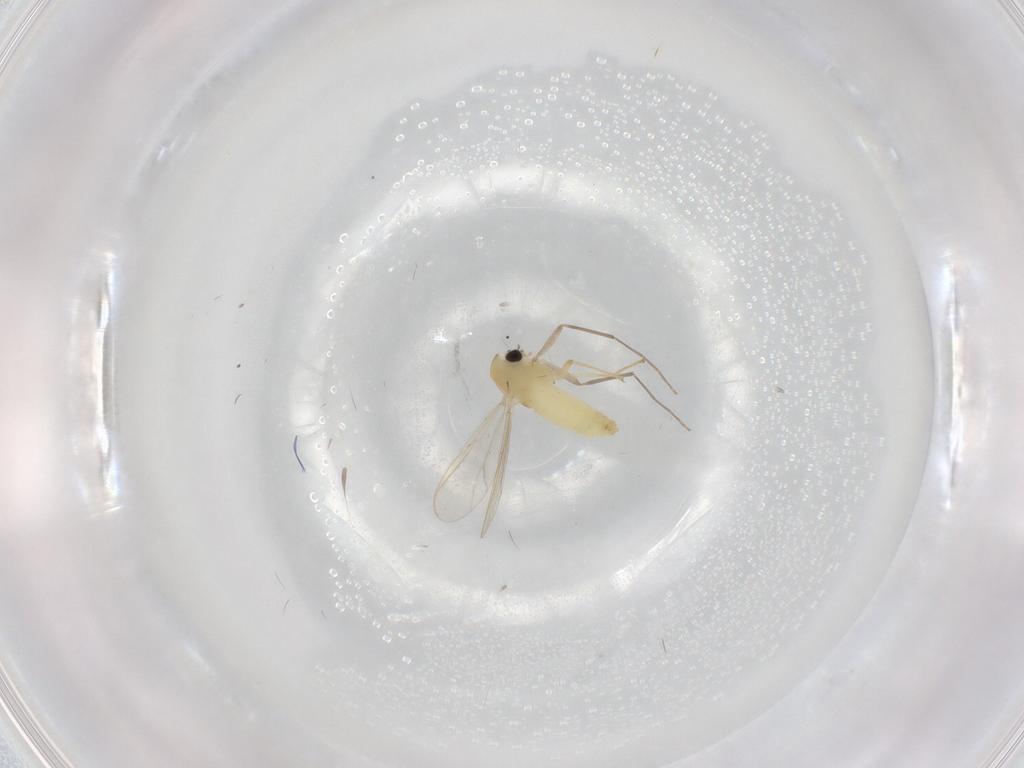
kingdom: Animalia
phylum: Arthropoda
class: Insecta
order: Diptera
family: Chironomidae
